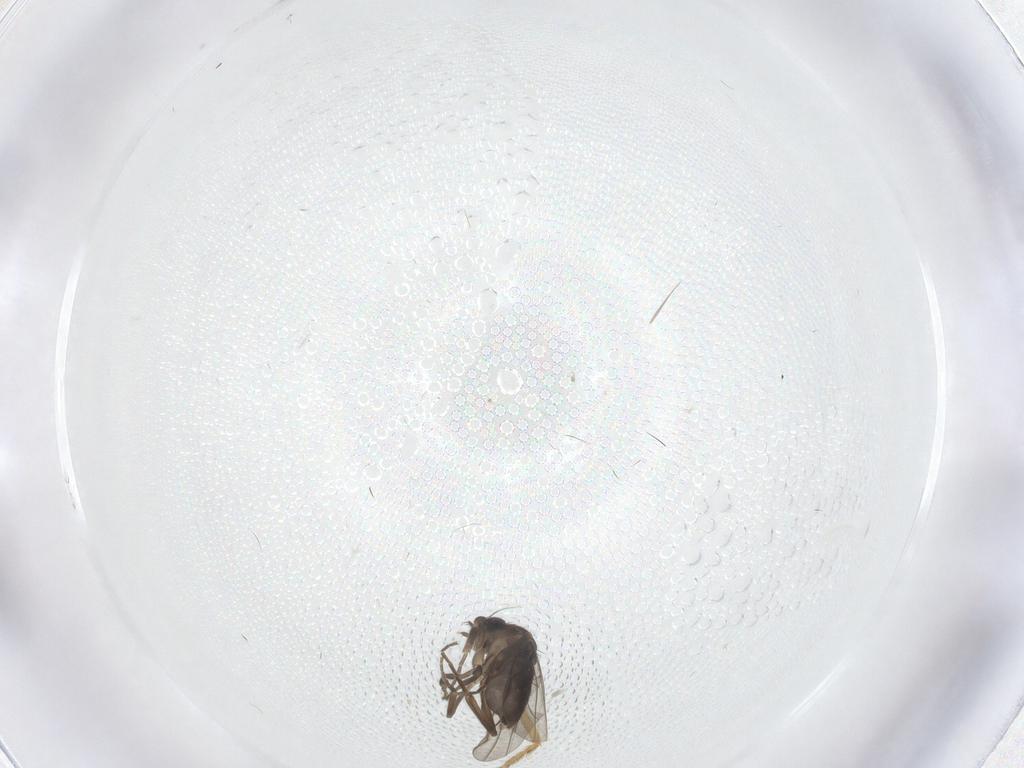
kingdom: Animalia
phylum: Arthropoda
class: Insecta
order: Diptera
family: Ceratopogonidae
